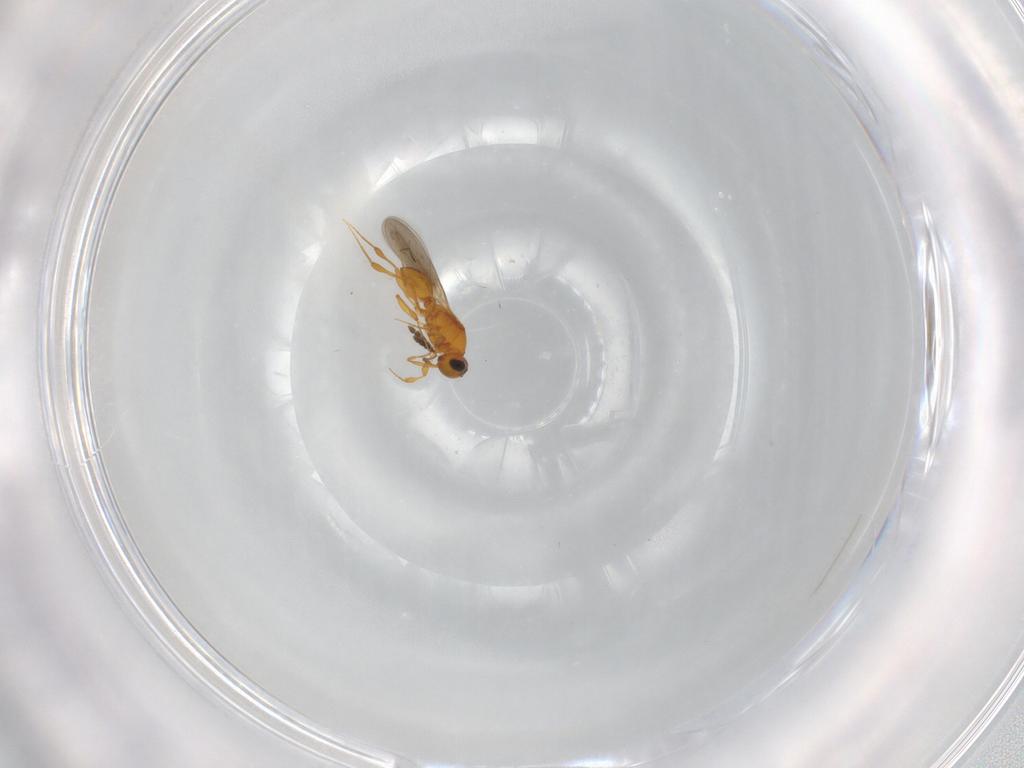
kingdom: Animalia
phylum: Arthropoda
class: Insecta
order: Hymenoptera
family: Platygastridae
